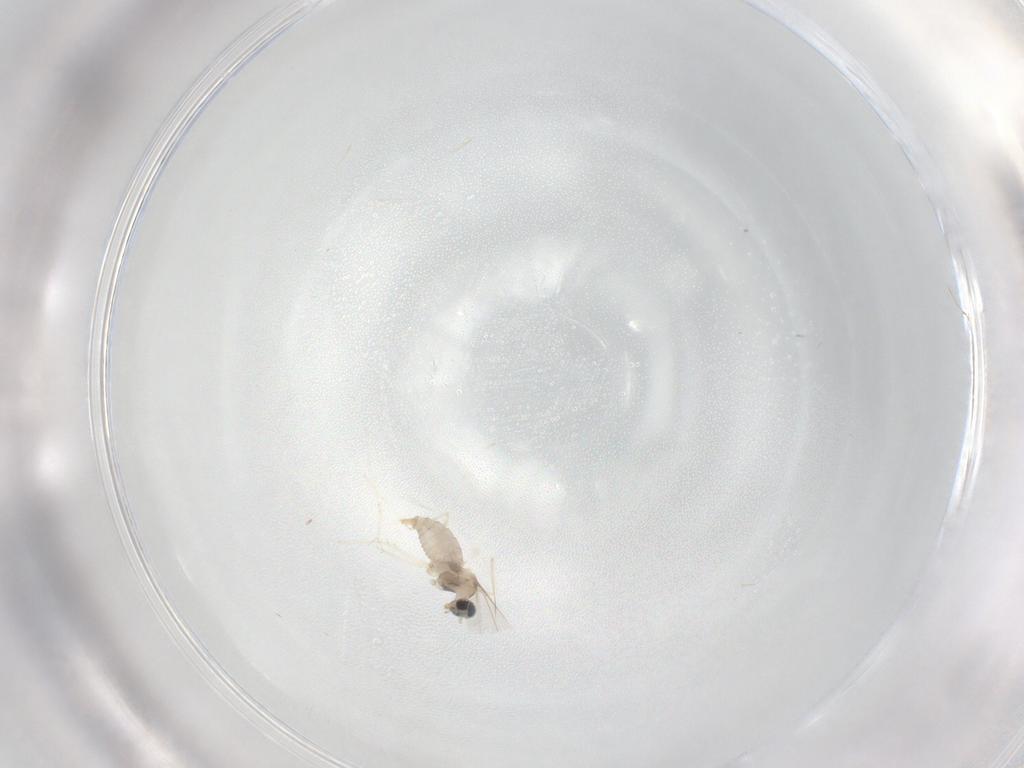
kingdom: Animalia
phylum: Arthropoda
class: Insecta
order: Diptera
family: Cecidomyiidae
